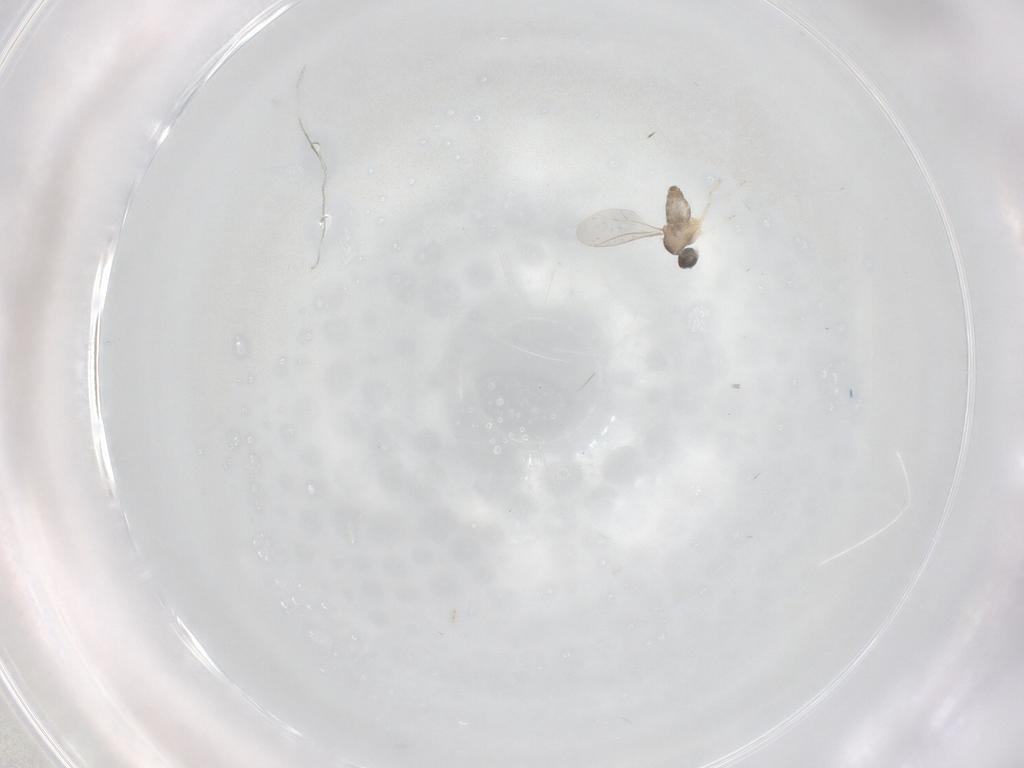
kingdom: Animalia
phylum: Arthropoda
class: Insecta
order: Diptera
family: Cecidomyiidae
